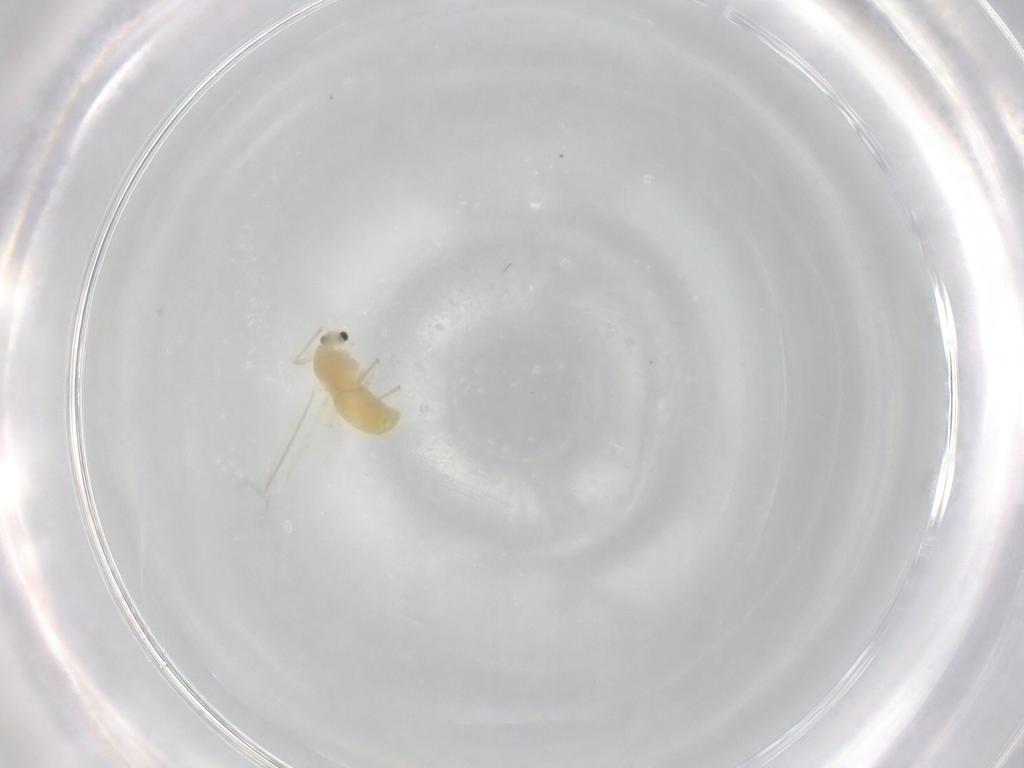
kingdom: Animalia
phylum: Arthropoda
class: Insecta
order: Diptera
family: Chironomidae
